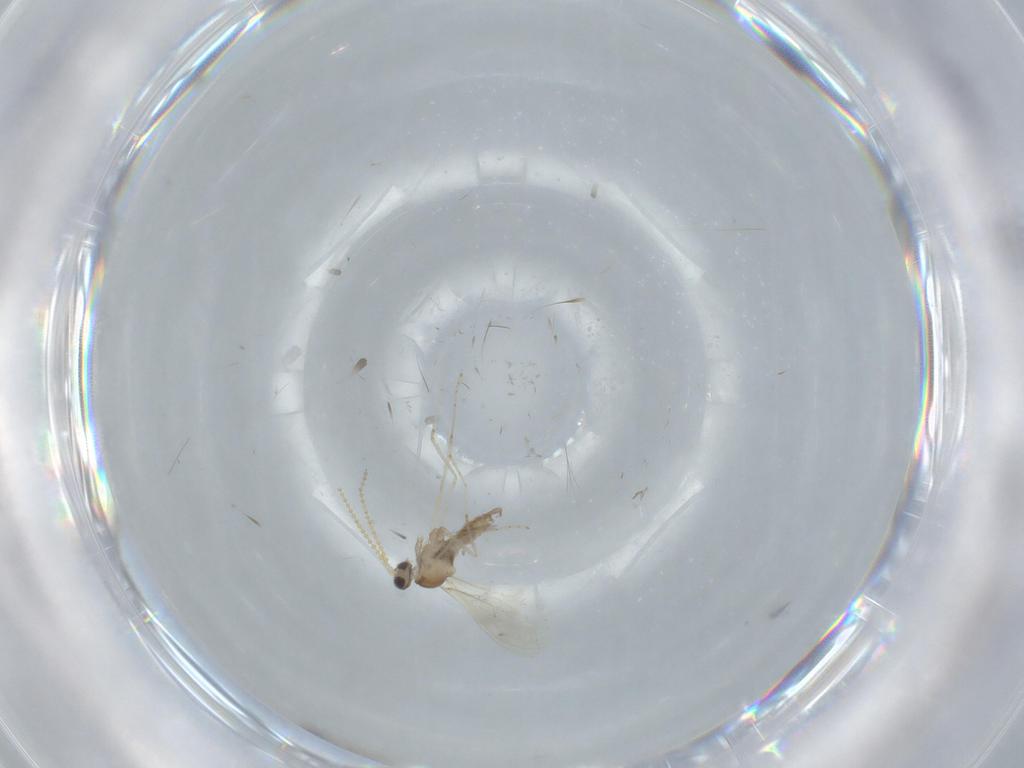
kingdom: Animalia
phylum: Arthropoda
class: Insecta
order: Diptera
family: Cecidomyiidae
